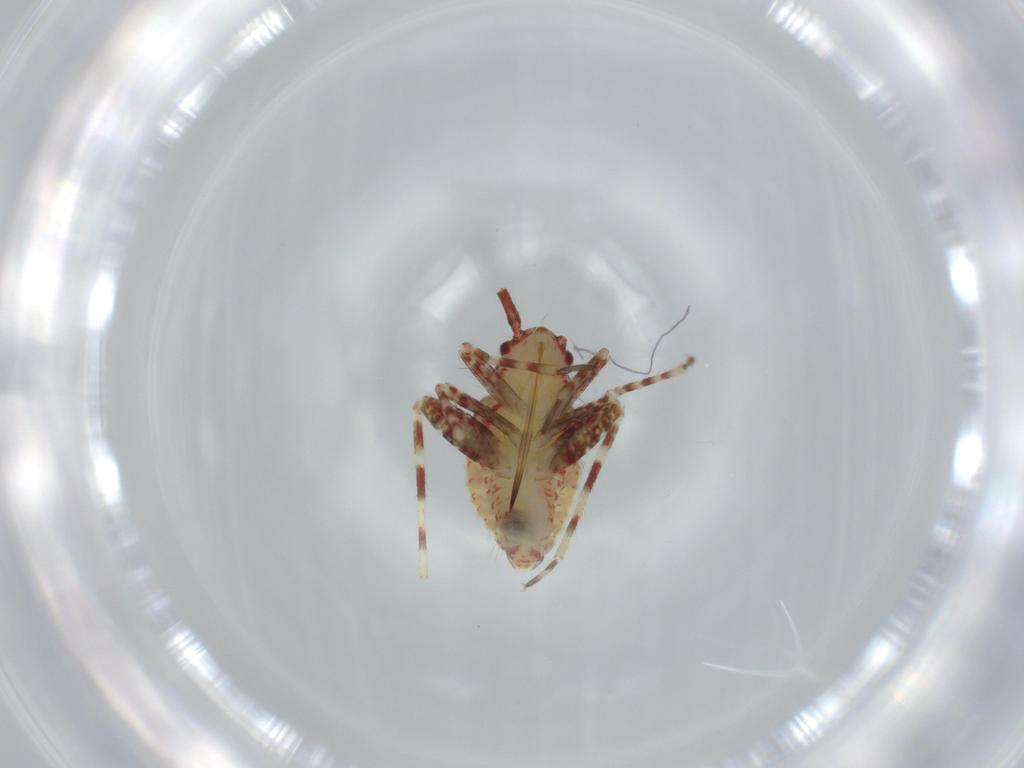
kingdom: Animalia
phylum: Arthropoda
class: Insecta
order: Hemiptera
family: Miridae
